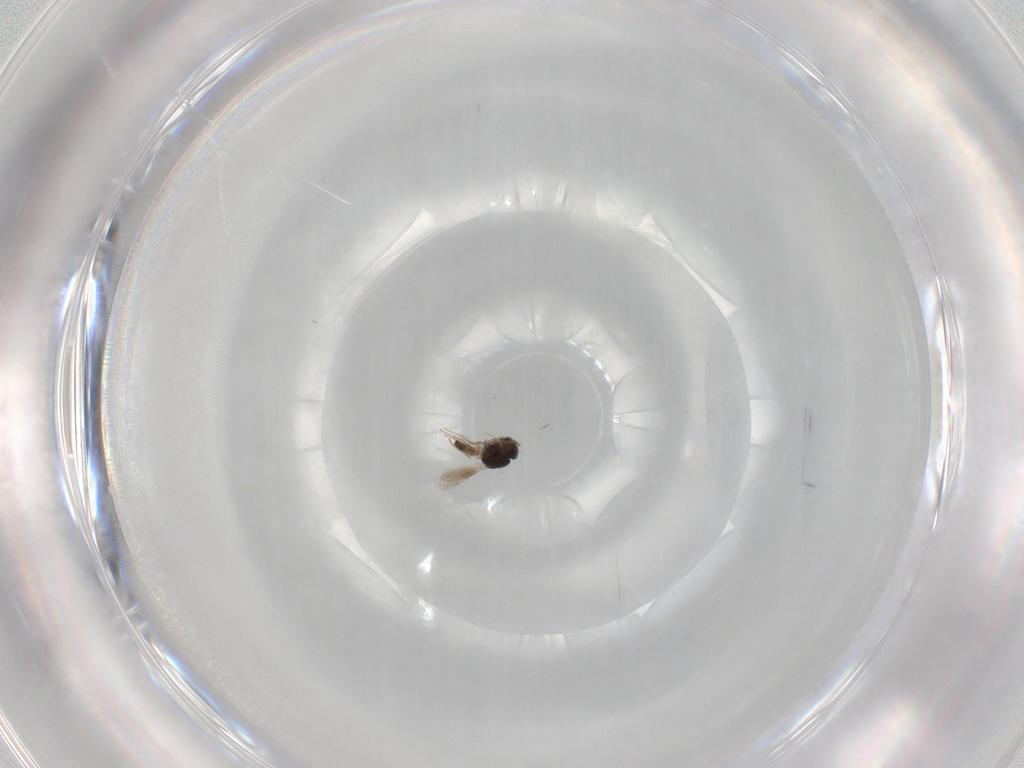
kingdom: Animalia
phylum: Arthropoda
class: Insecta
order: Hymenoptera
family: Scelionidae
